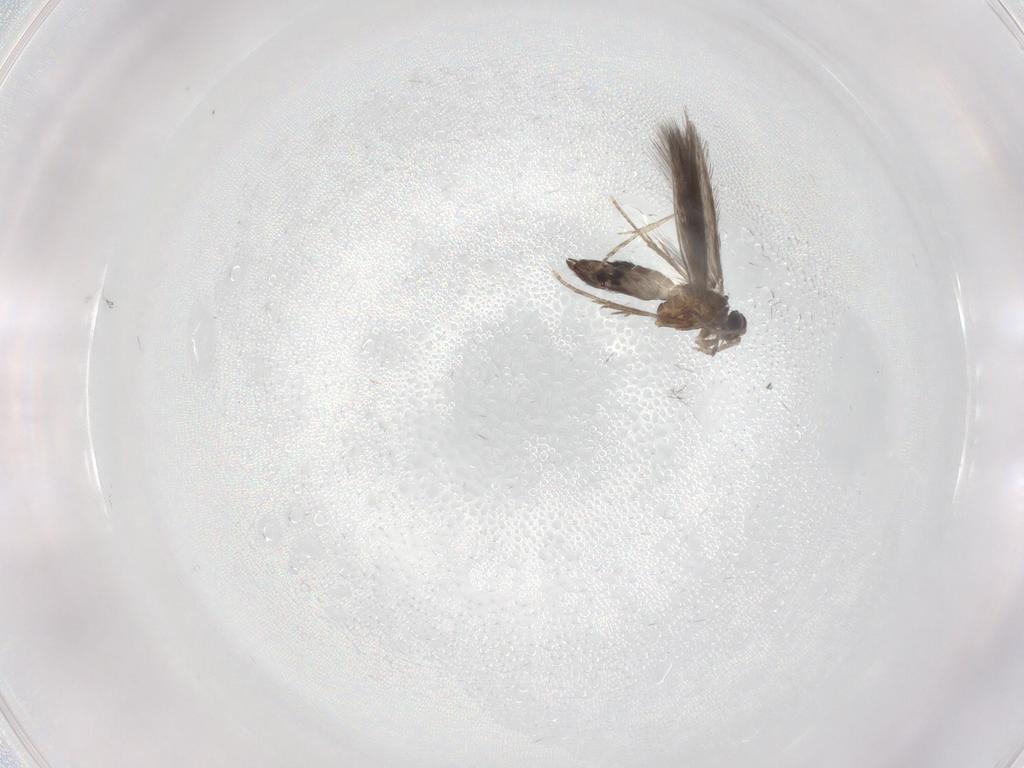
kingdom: Animalia
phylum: Arthropoda
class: Insecta
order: Trichoptera
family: Hydroptilidae
